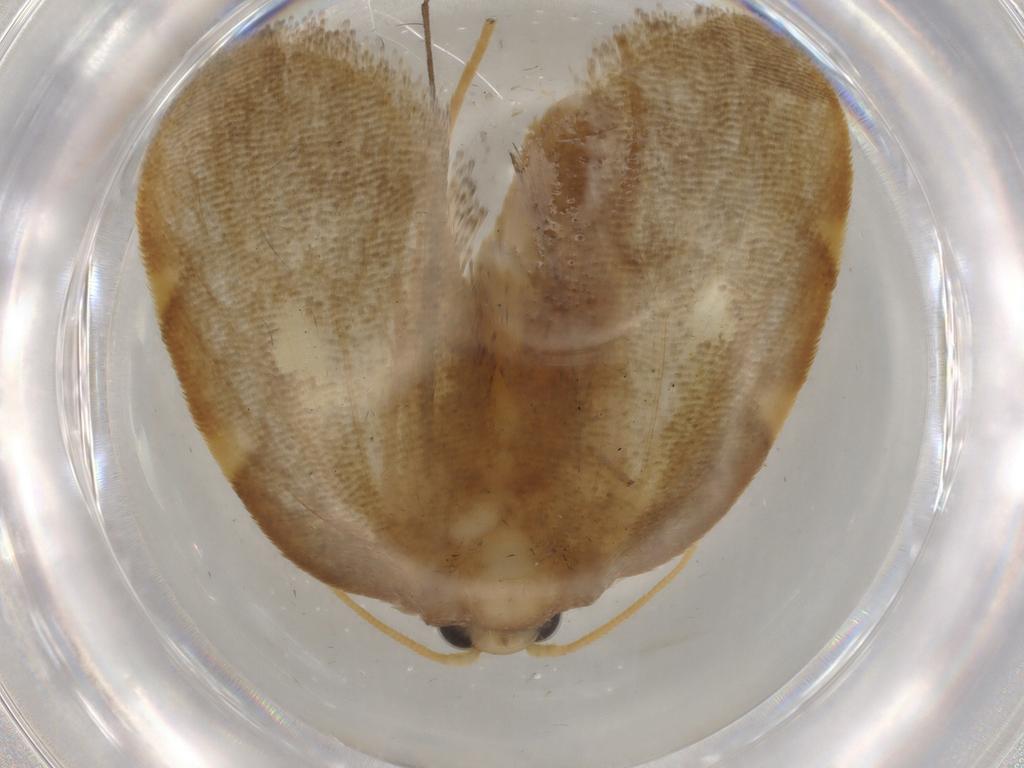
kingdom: Animalia
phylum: Arthropoda
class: Insecta
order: Lepidoptera
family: Psychidae
